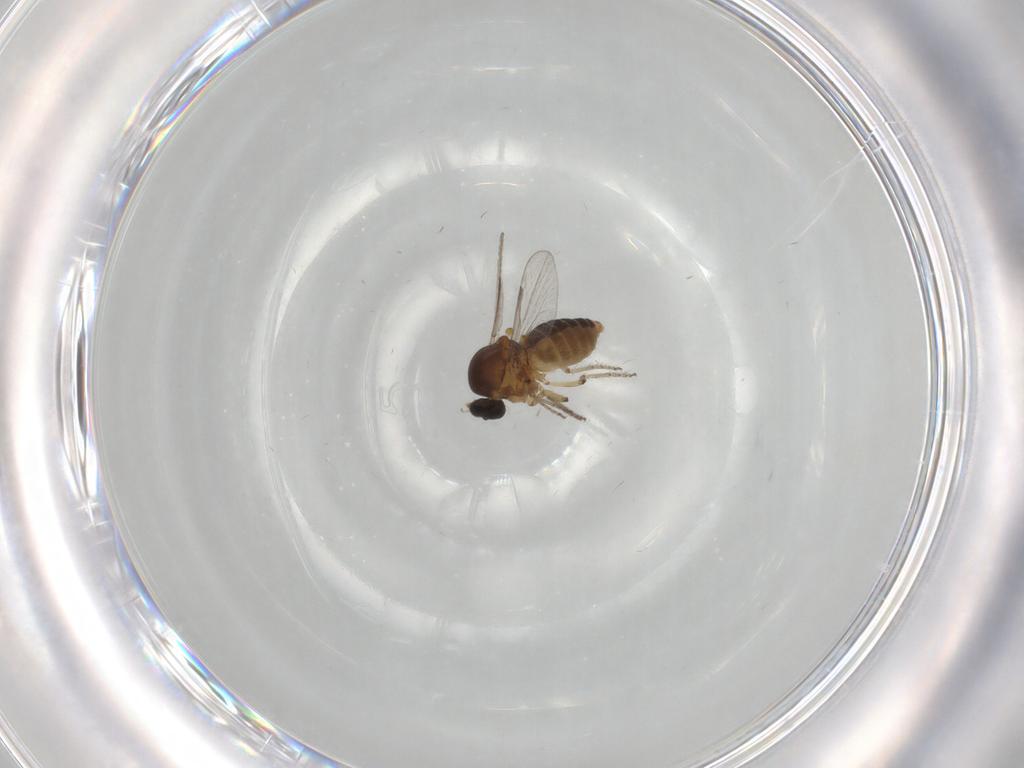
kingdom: Animalia
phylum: Arthropoda
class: Insecta
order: Diptera
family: Ceratopogonidae
